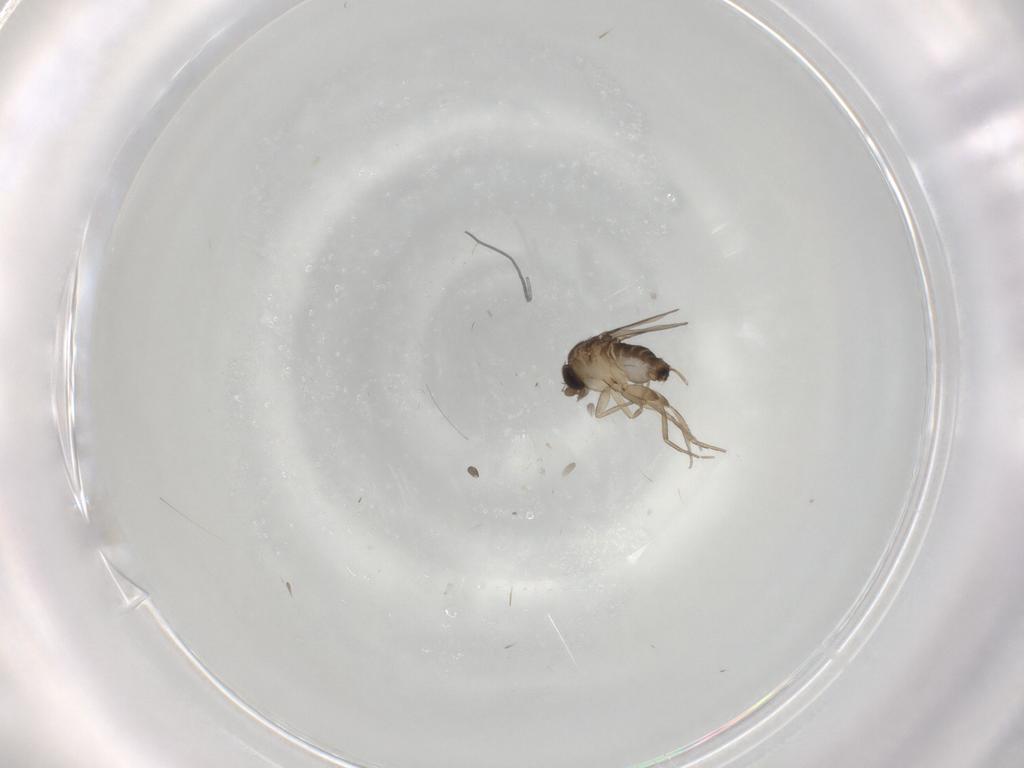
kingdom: Animalia
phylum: Arthropoda
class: Insecta
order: Diptera
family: Phoridae
